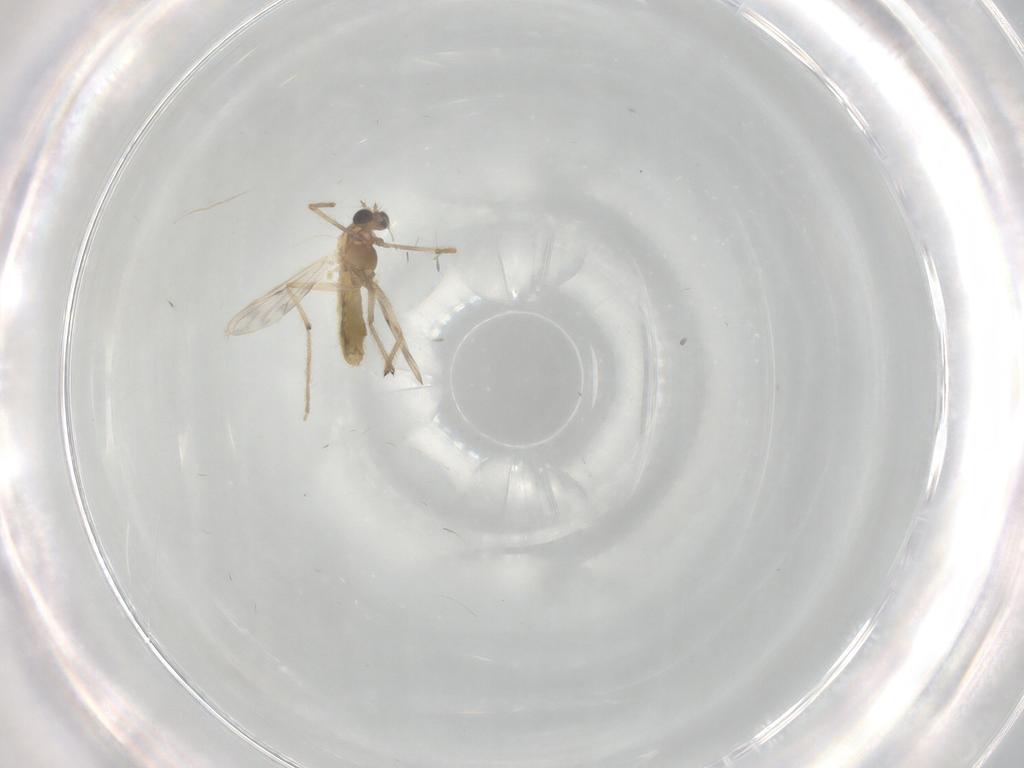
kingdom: Animalia
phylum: Arthropoda
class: Insecta
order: Diptera
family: Chironomidae
